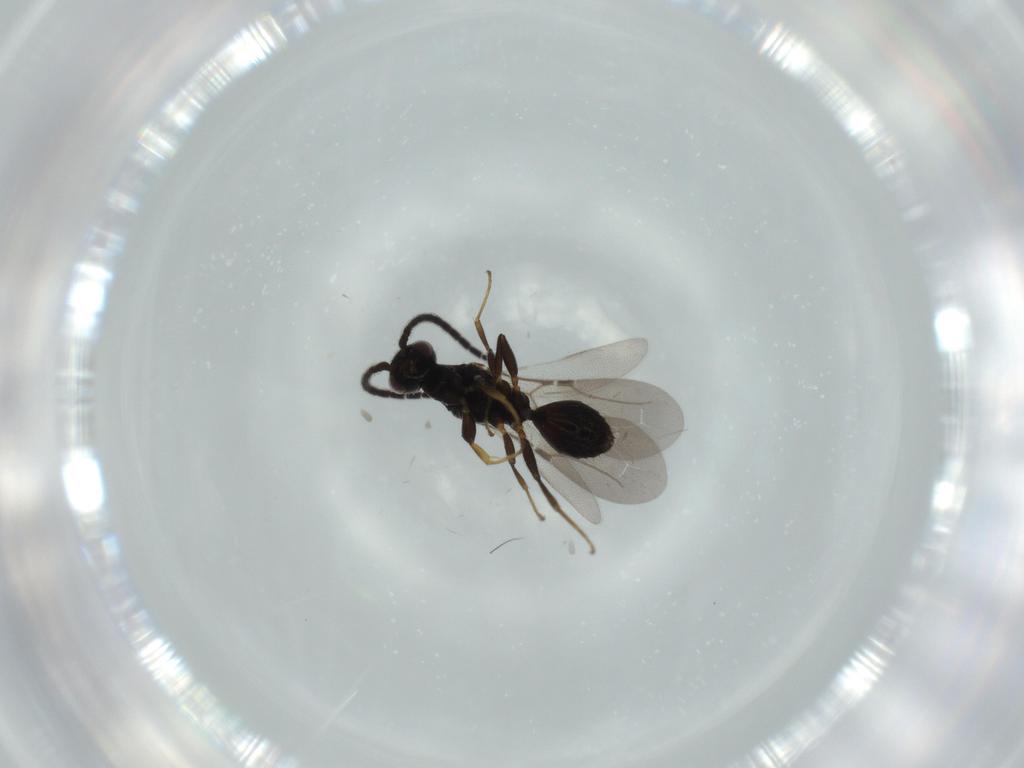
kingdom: Animalia
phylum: Arthropoda
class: Insecta
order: Hymenoptera
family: Bethylidae
